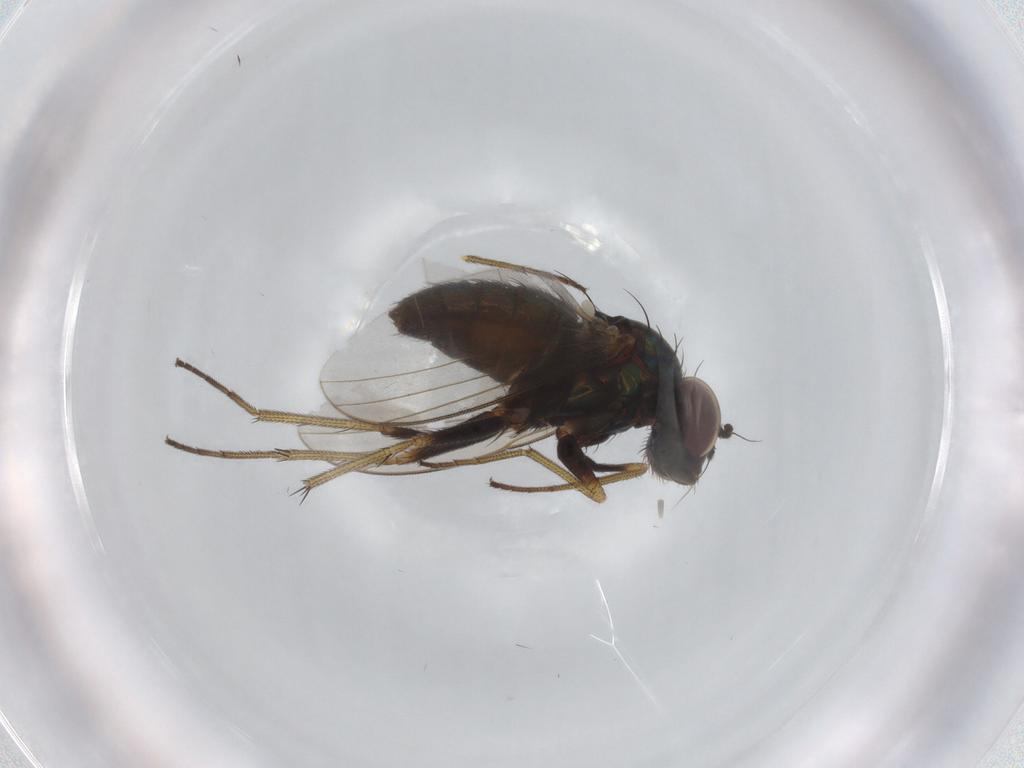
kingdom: Animalia
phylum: Arthropoda
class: Insecta
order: Diptera
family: Dolichopodidae
